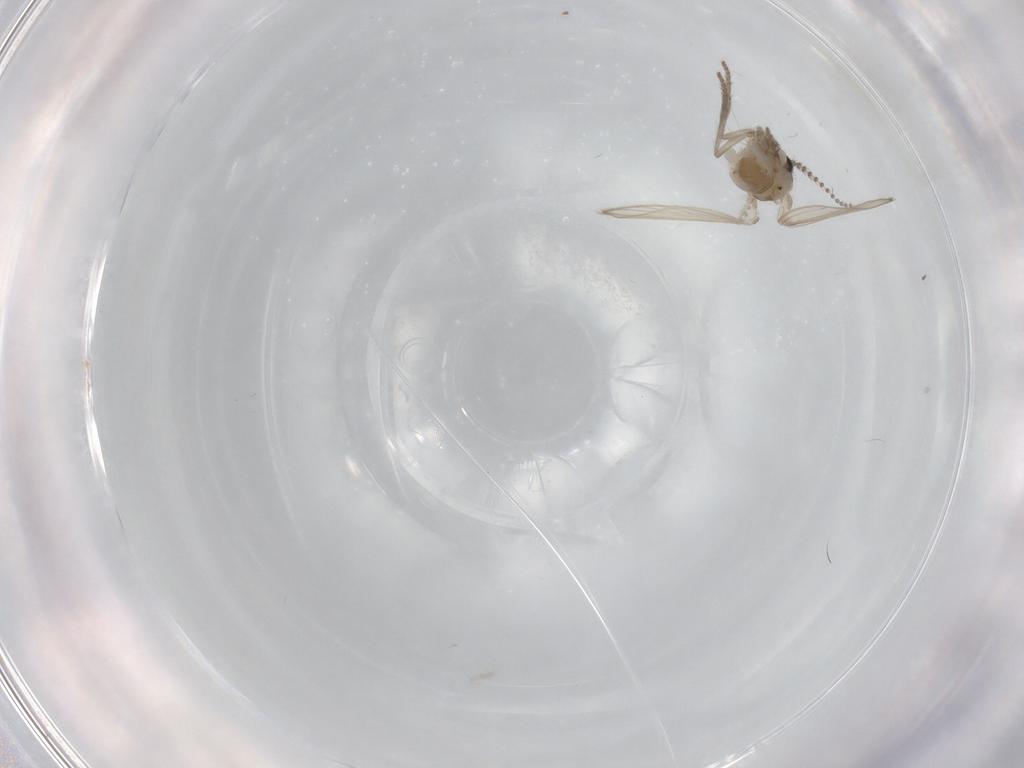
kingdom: Animalia
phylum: Arthropoda
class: Insecta
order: Diptera
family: Psychodidae
